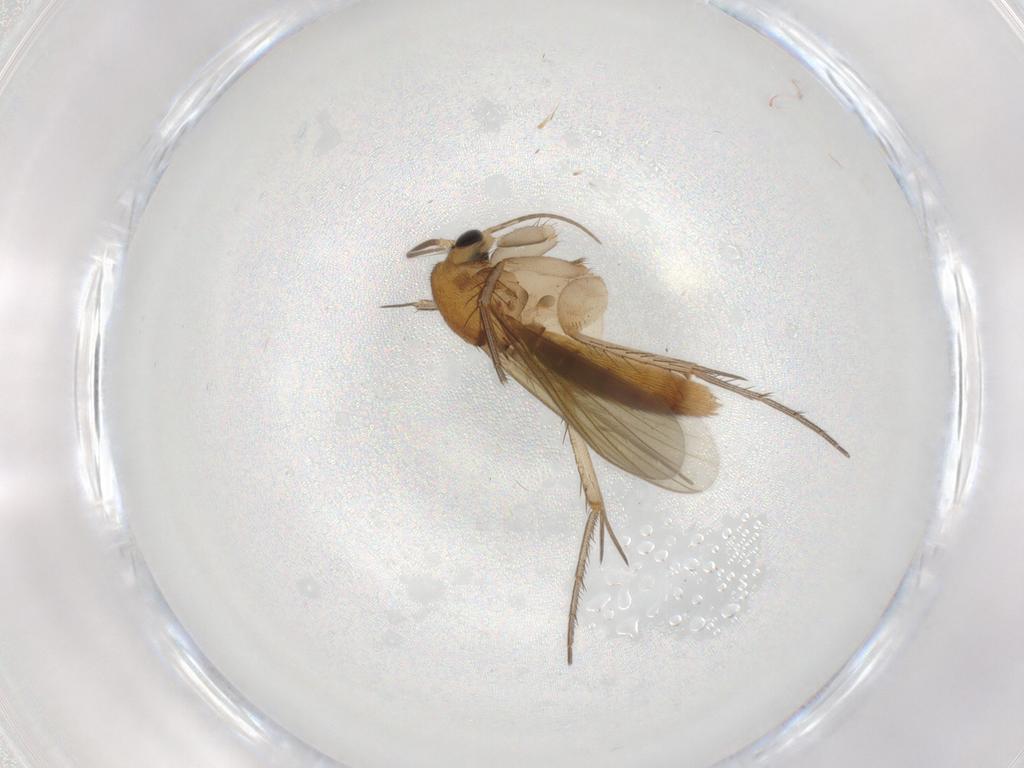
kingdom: Animalia
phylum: Arthropoda
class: Insecta
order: Diptera
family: Mycetophilidae
